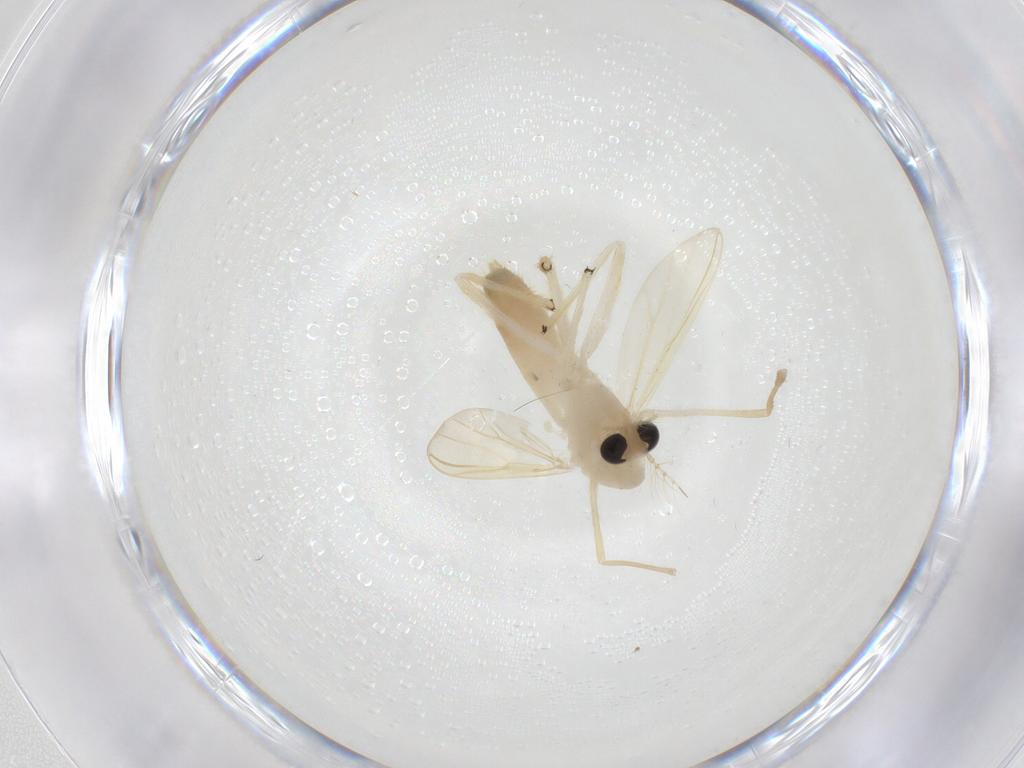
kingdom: Animalia
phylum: Arthropoda
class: Insecta
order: Diptera
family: Chironomidae
